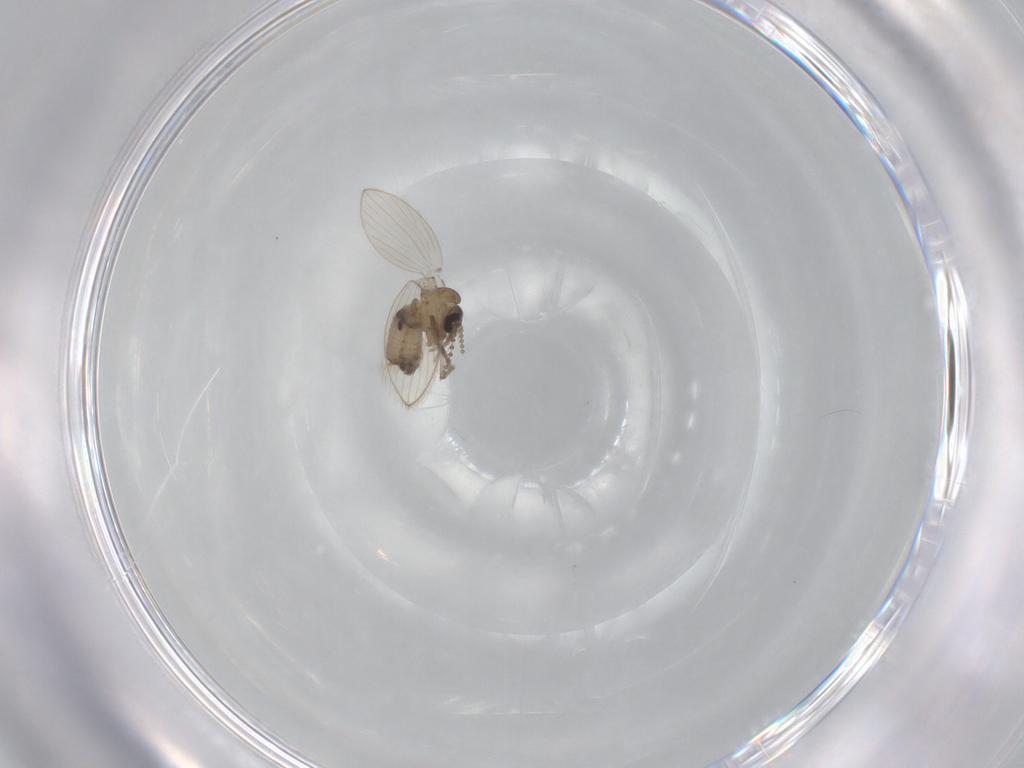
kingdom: Animalia
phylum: Arthropoda
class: Insecta
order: Diptera
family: Psychodidae
